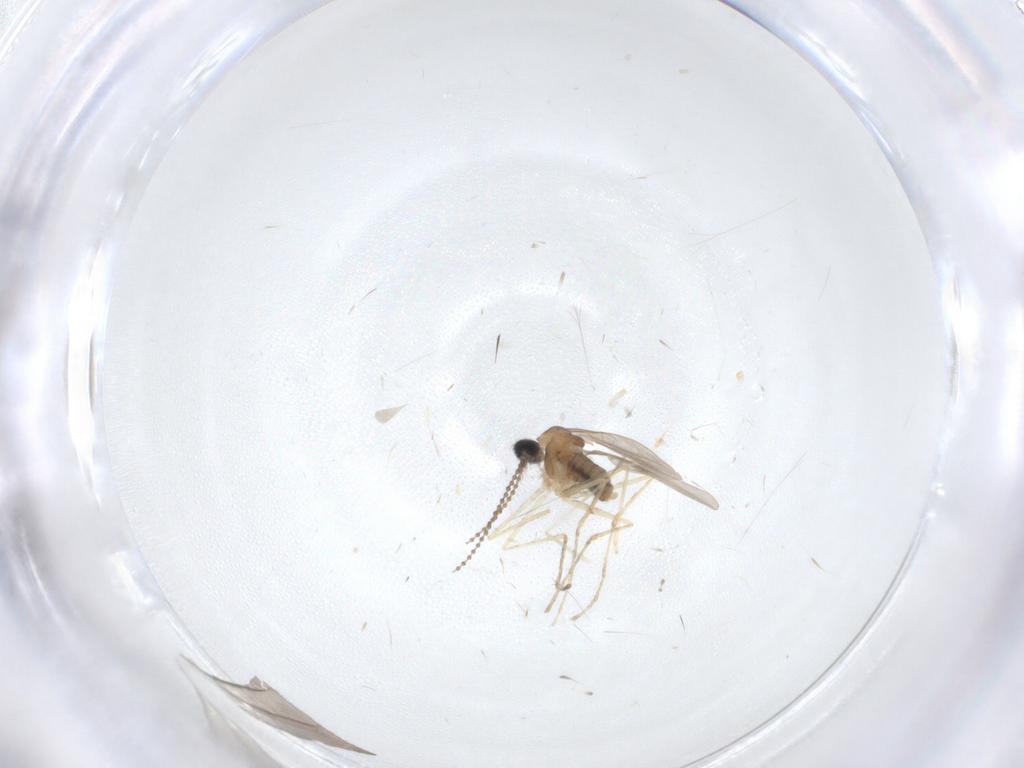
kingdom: Animalia
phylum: Arthropoda
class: Insecta
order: Diptera
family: Cecidomyiidae
